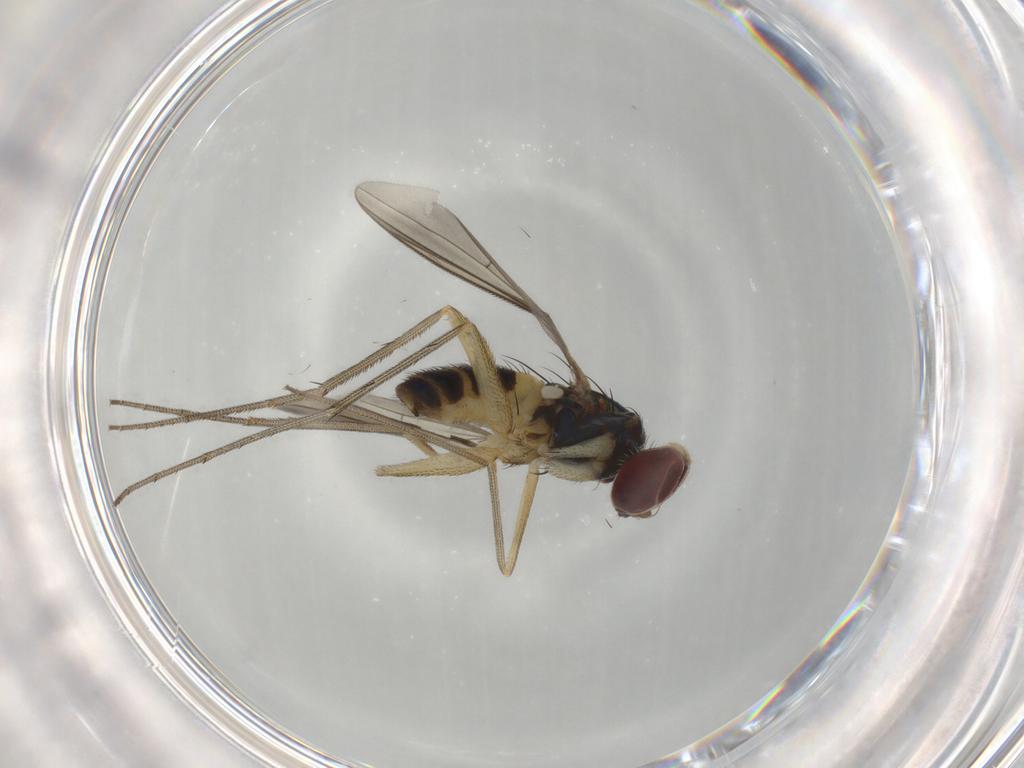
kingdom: Animalia
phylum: Arthropoda
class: Insecta
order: Diptera
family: Dolichopodidae
